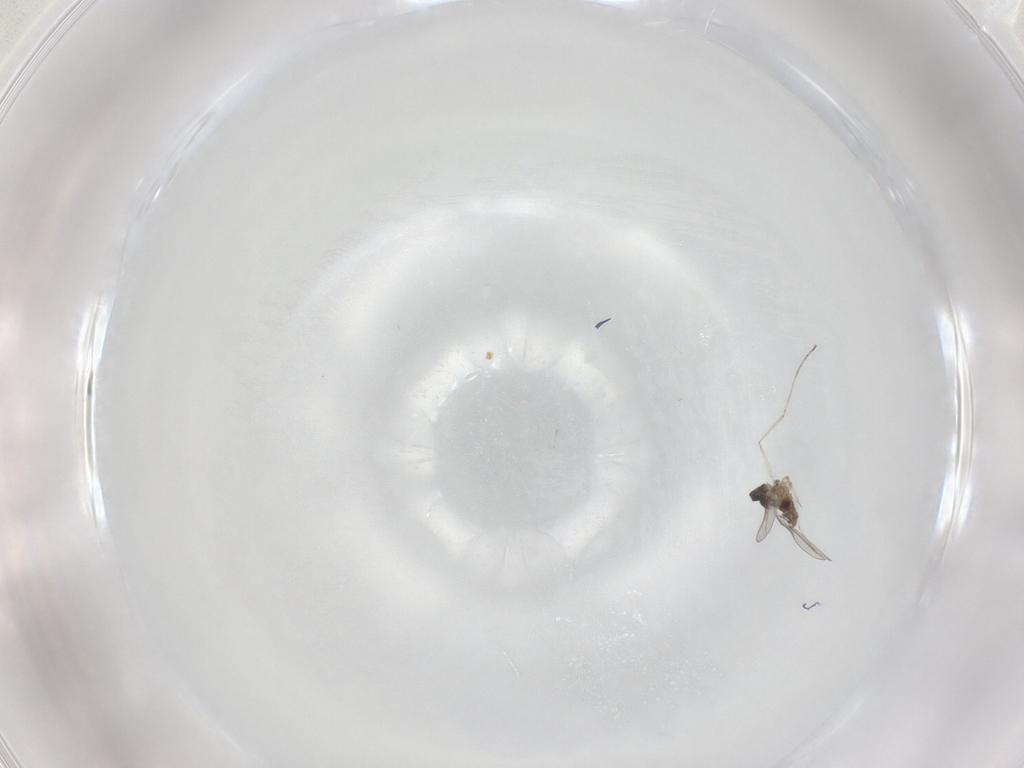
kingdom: Animalia
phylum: Arthropoda
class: Insecta
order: Diptera
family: Cecidomyiidae
